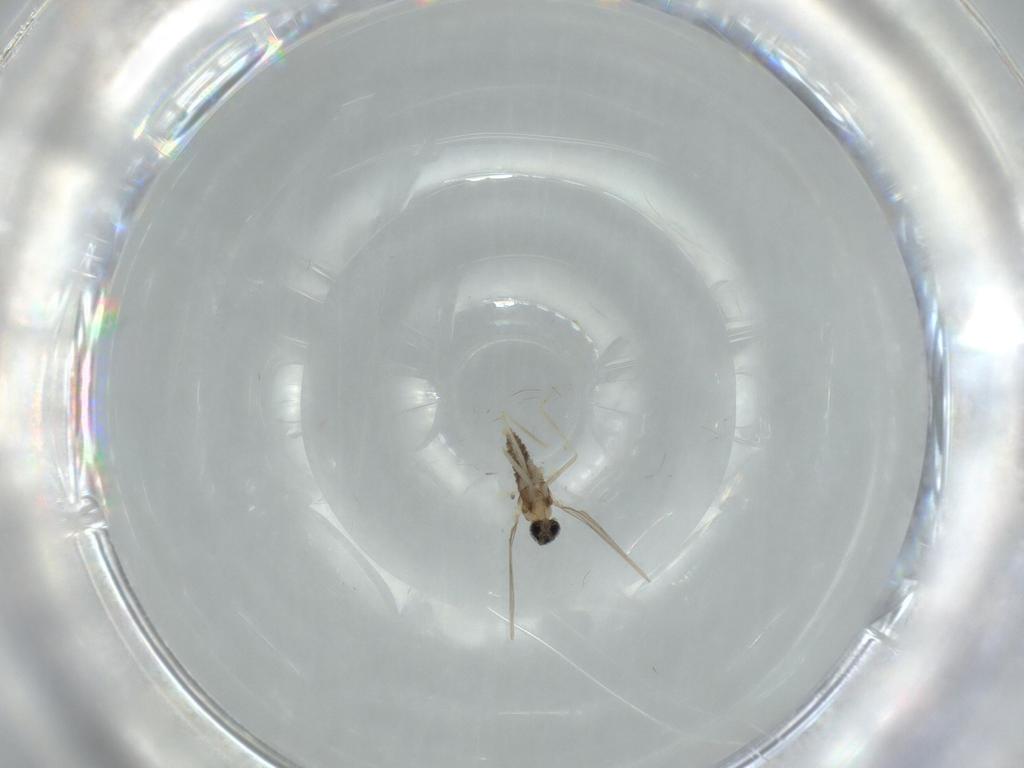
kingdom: Animalia
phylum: Arthropoda
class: Insecta
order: Diptera
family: Cecidomyiidae
